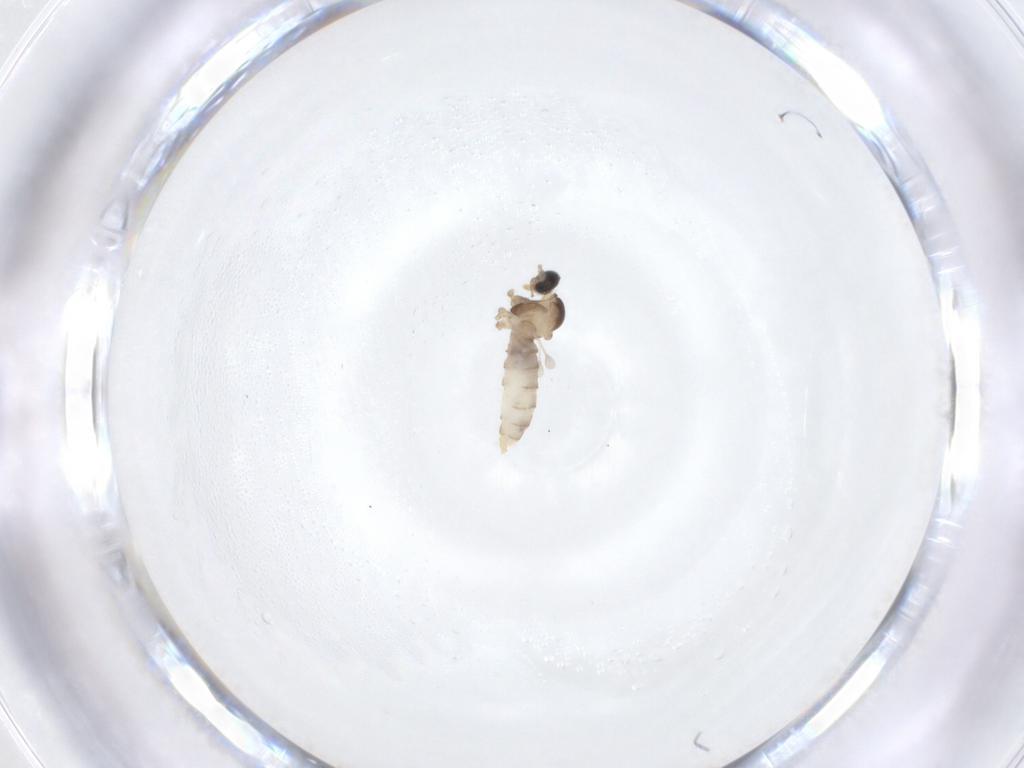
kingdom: Animalia
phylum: Arthropoda
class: Insecta
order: Diptera
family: Cecidomyiidae
